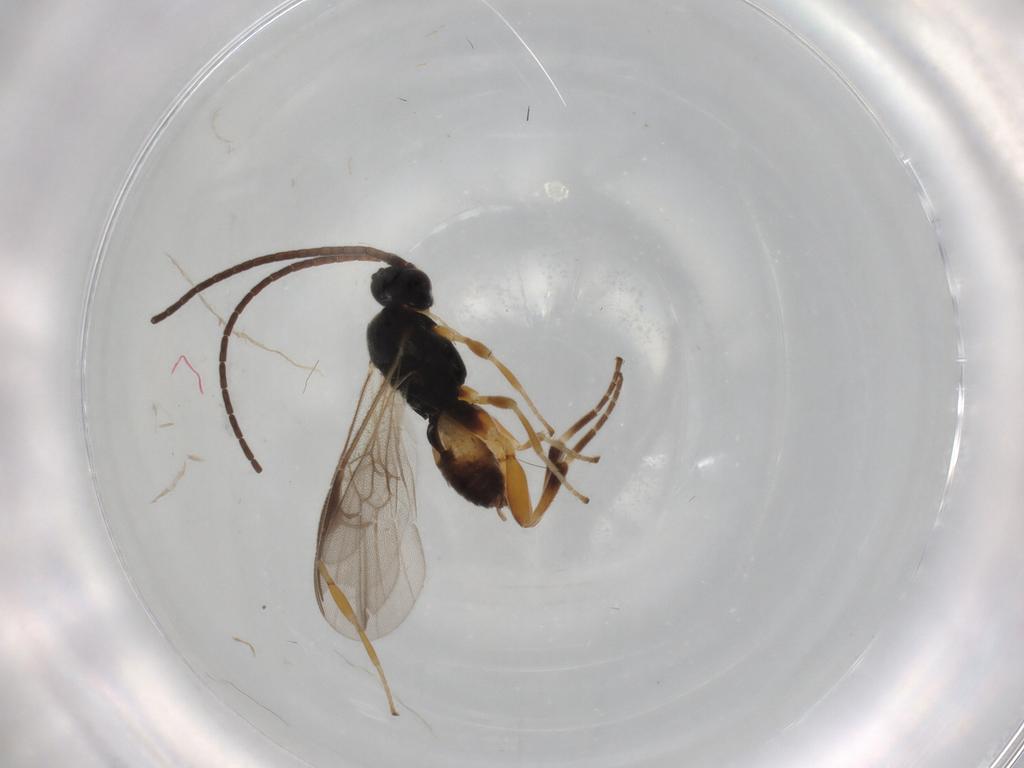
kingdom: Animalia
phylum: Arthropoda
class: Insecta
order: Hymenoptera
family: Braconidae
